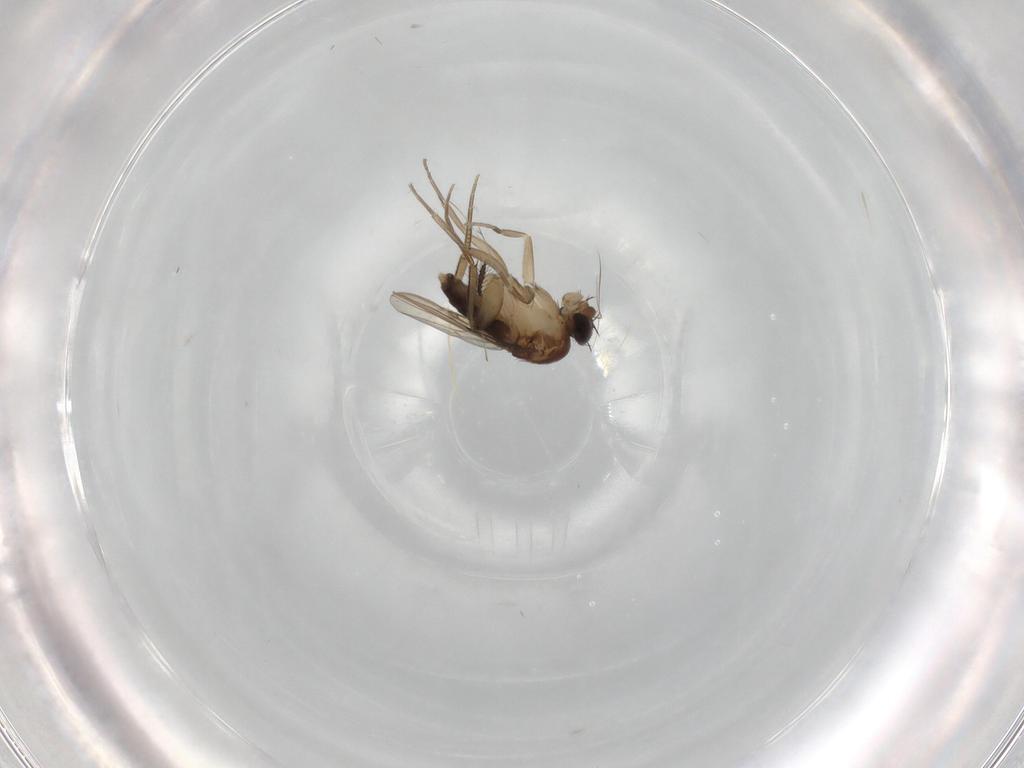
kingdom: Animalia
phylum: Arthropoda
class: Insecta
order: Diptera
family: Phoridae
